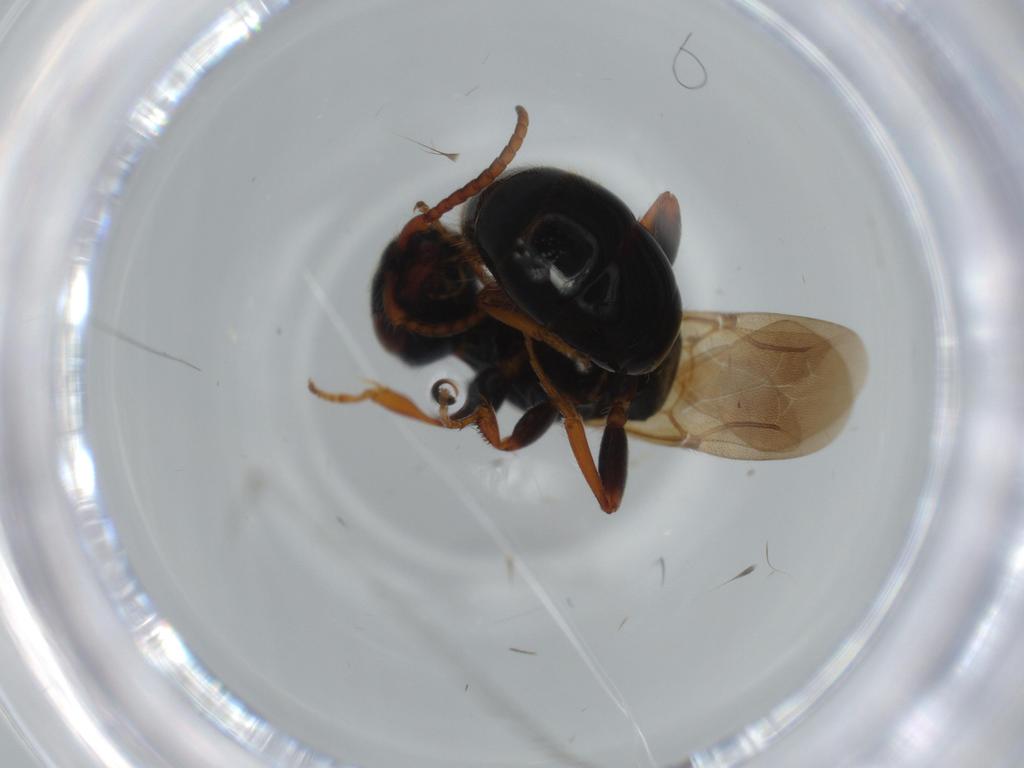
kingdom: Animalia
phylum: Arthropoda
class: Insecta
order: Hymenoptera
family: Bethylidae
